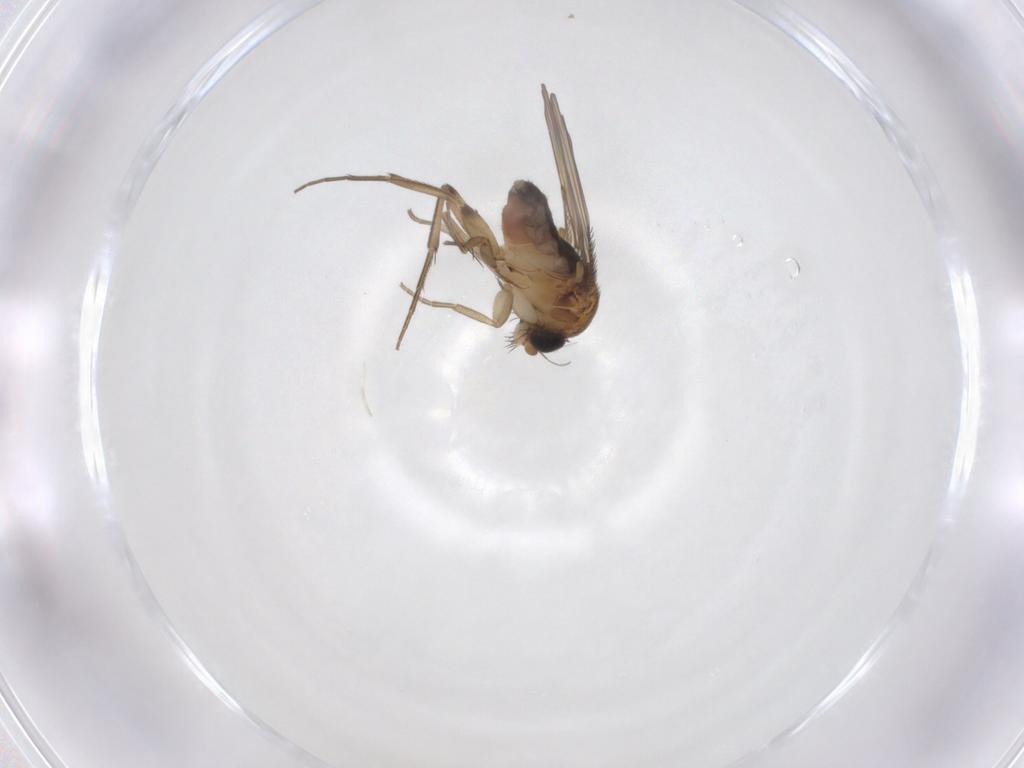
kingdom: Animalia
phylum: Arthropoda
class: Insecta
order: Diptera
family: Phoridae
